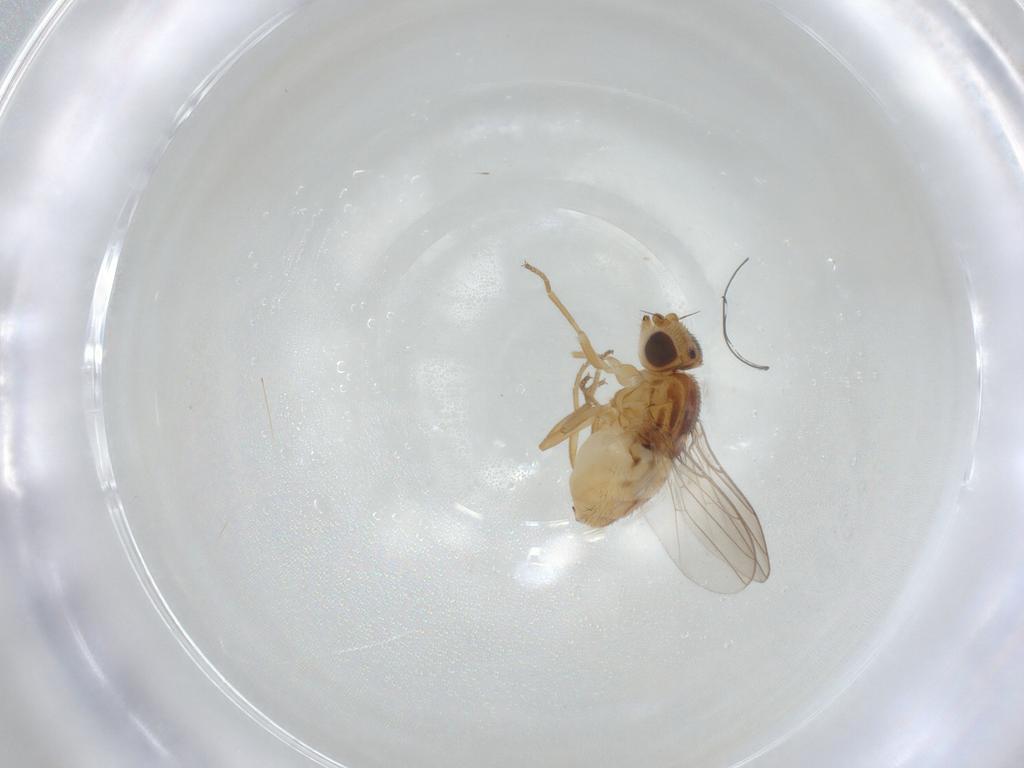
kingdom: Animalia
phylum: Arthropoda
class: Insecta
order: Diptera
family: Chloropidae
